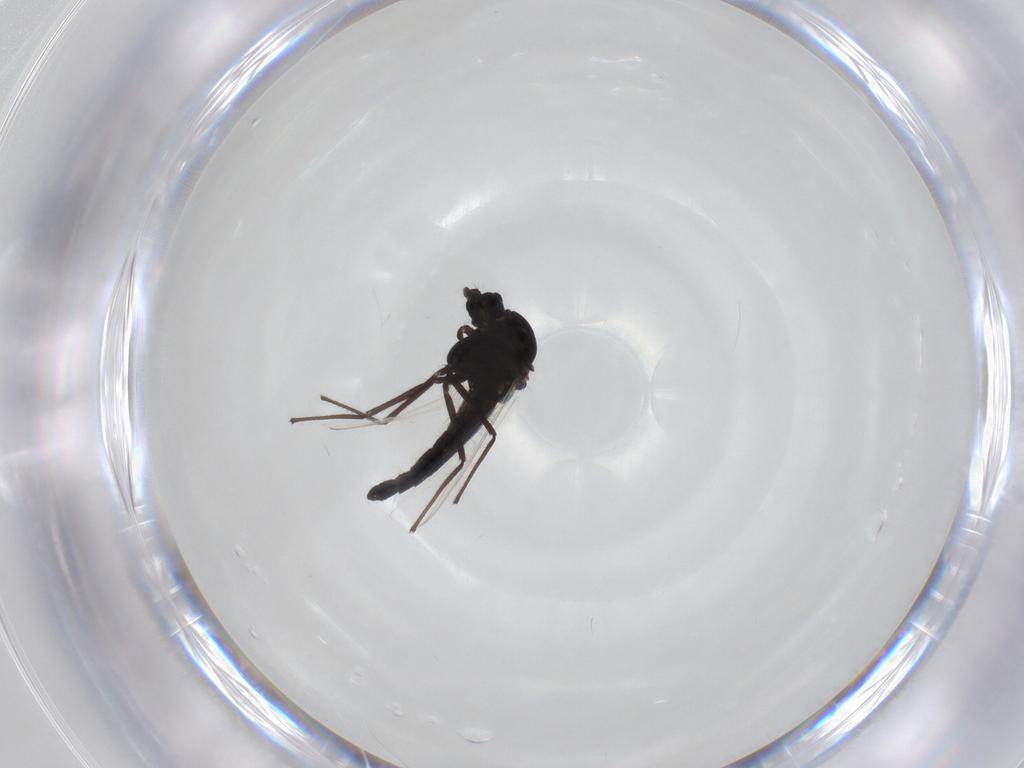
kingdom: Animalia
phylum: Arthropoda
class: Insecta
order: Diptera
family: Chironomidae
